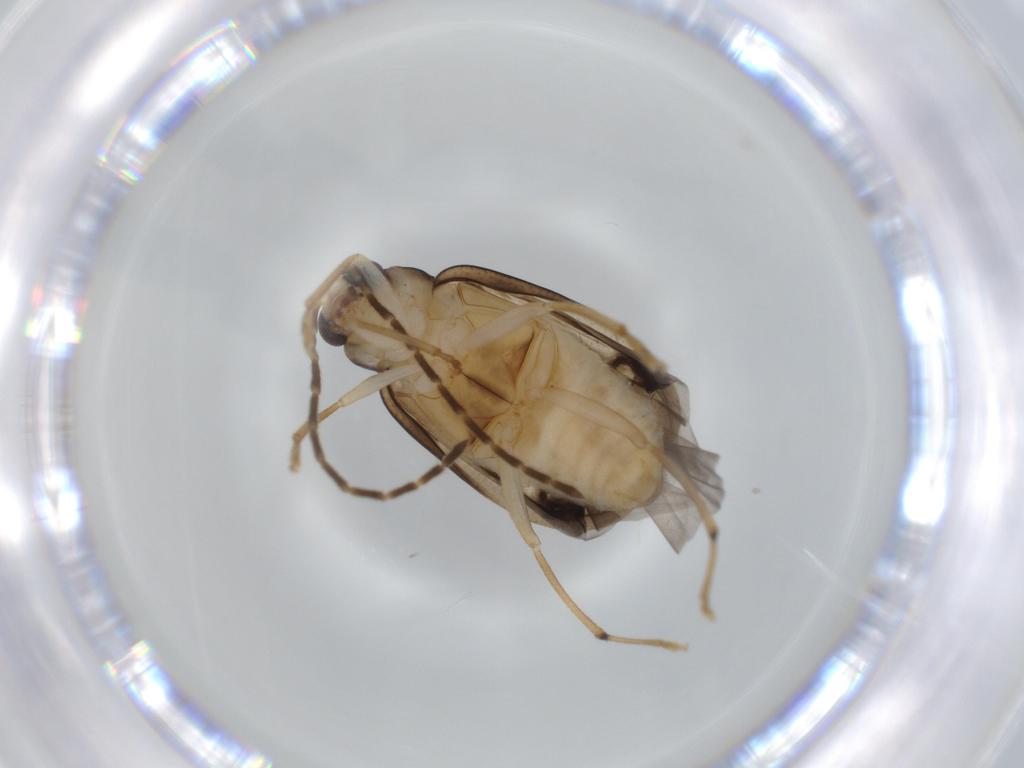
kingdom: Animalia
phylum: Arthropoda
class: Insecta
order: Coleoptera
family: Chrysomelidae
